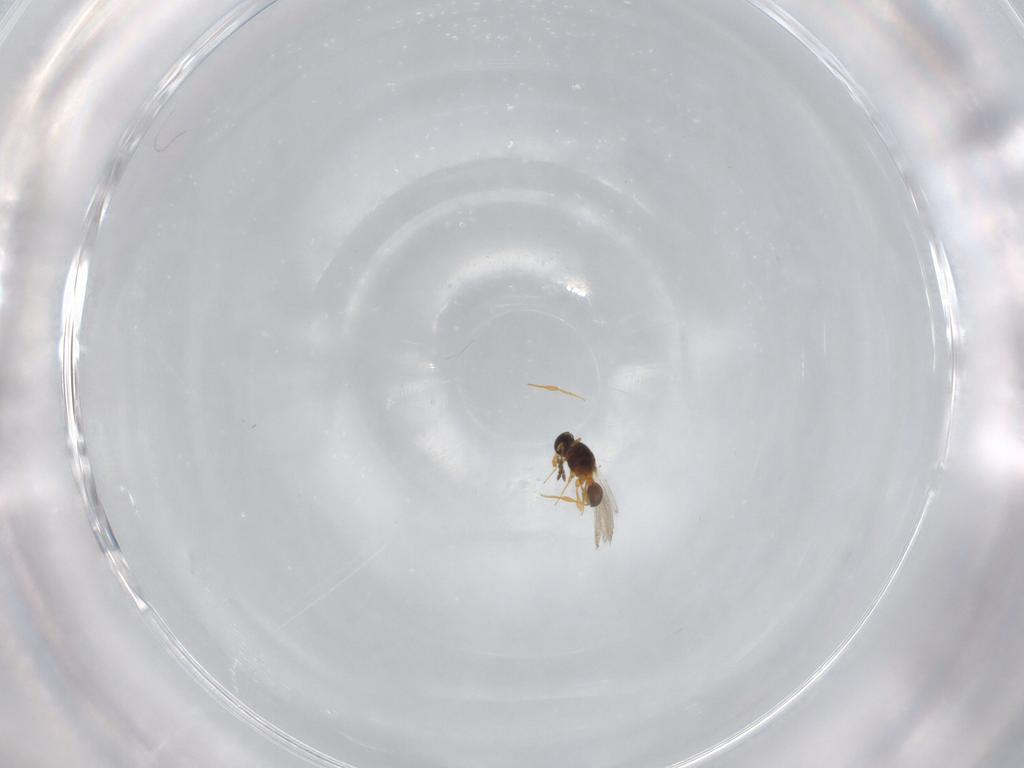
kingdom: Animalia
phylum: Arthropoda
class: Insecta
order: Hymenoptera
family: Platygastridae
